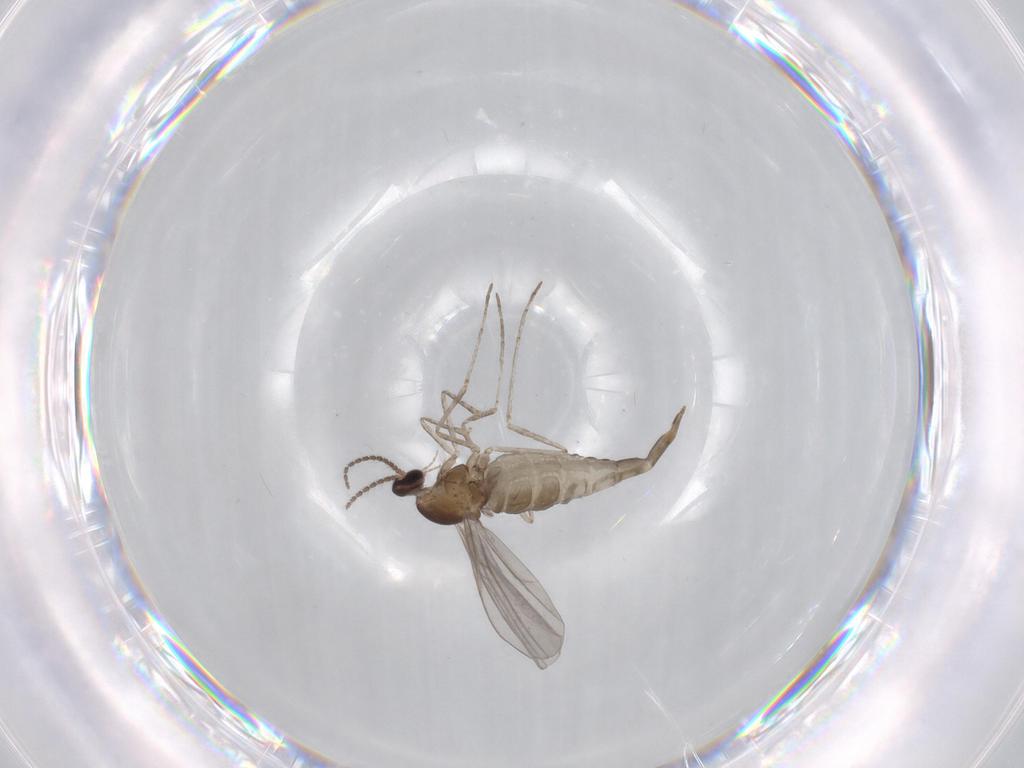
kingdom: Animalia
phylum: Arthropoda
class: Insecta
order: Diptera
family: Cecidomyiidae
